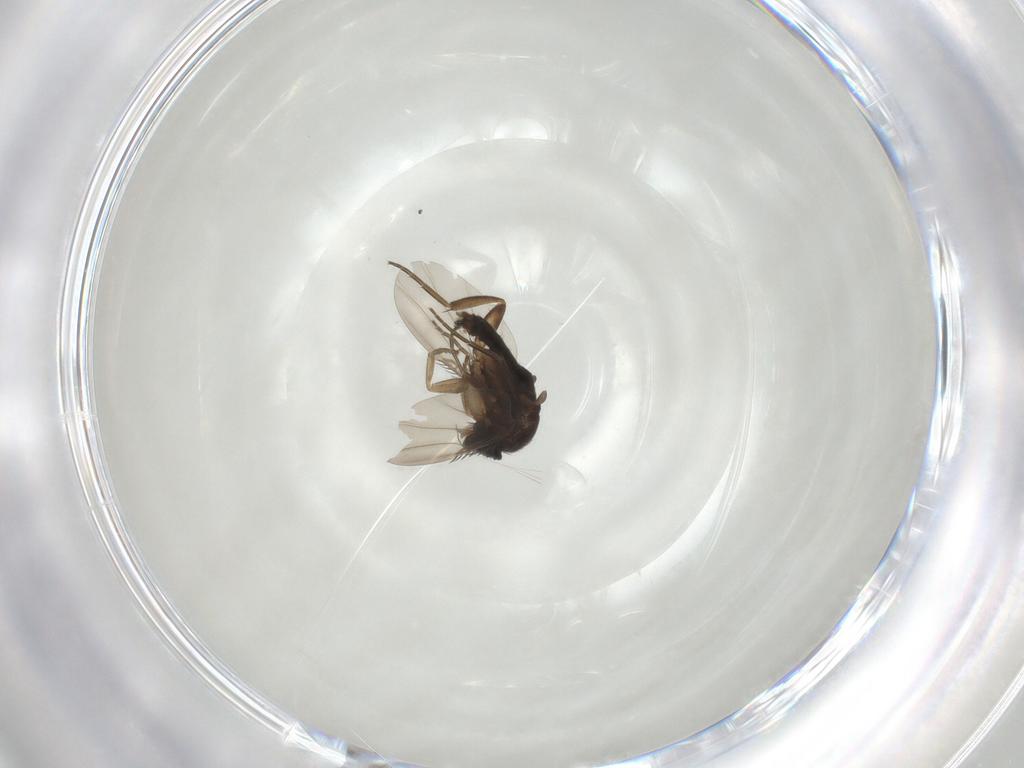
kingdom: Animalia
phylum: Arthropoda
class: Insecta
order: Diptera
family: Phoridae
